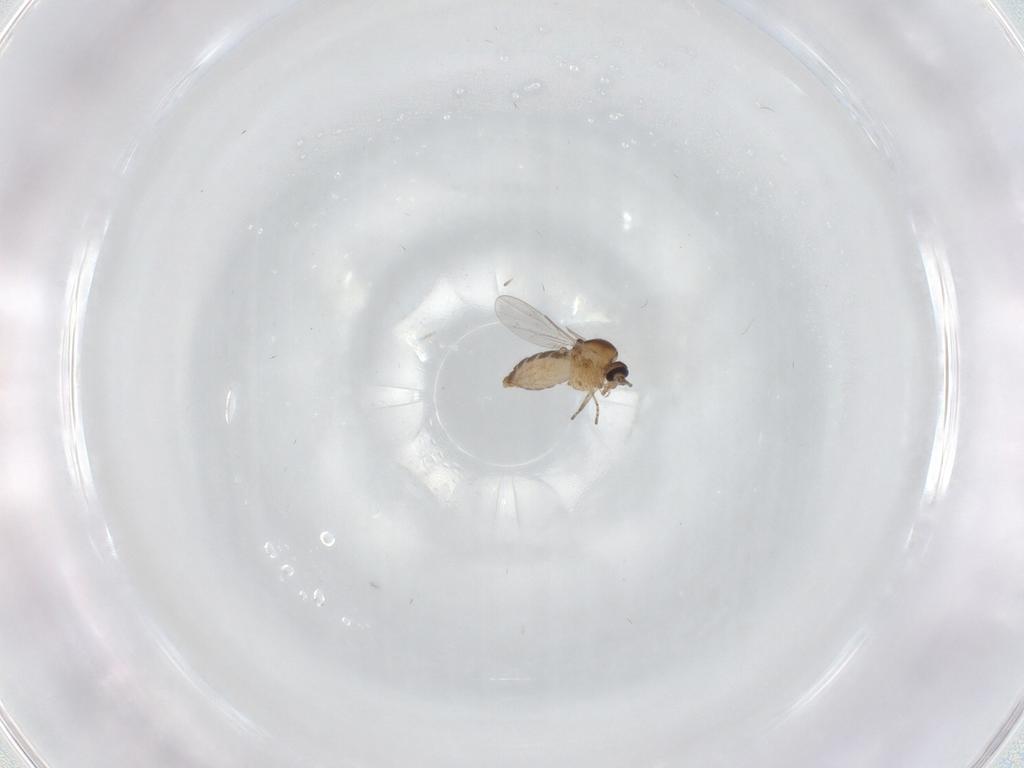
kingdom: Animalia
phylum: Arthropoda
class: Insecta
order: Diptera
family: Ceratopogonidae
